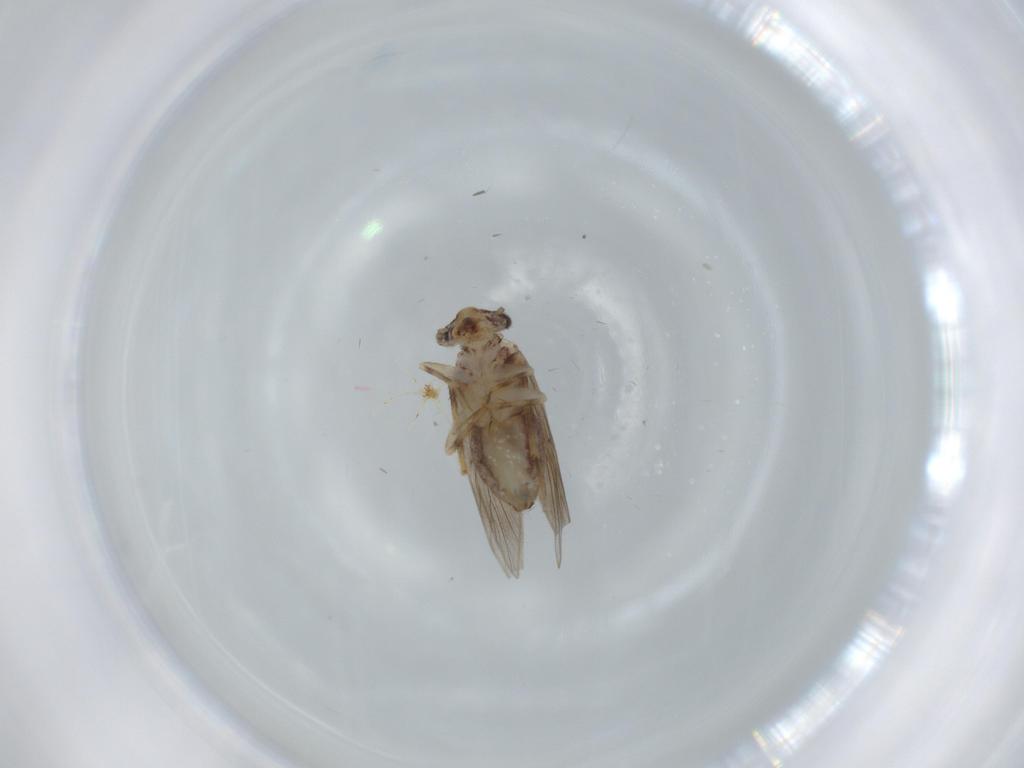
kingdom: Animalia
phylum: Arthropoda
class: Insecta
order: Psocodea
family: Lepidopsocidae
